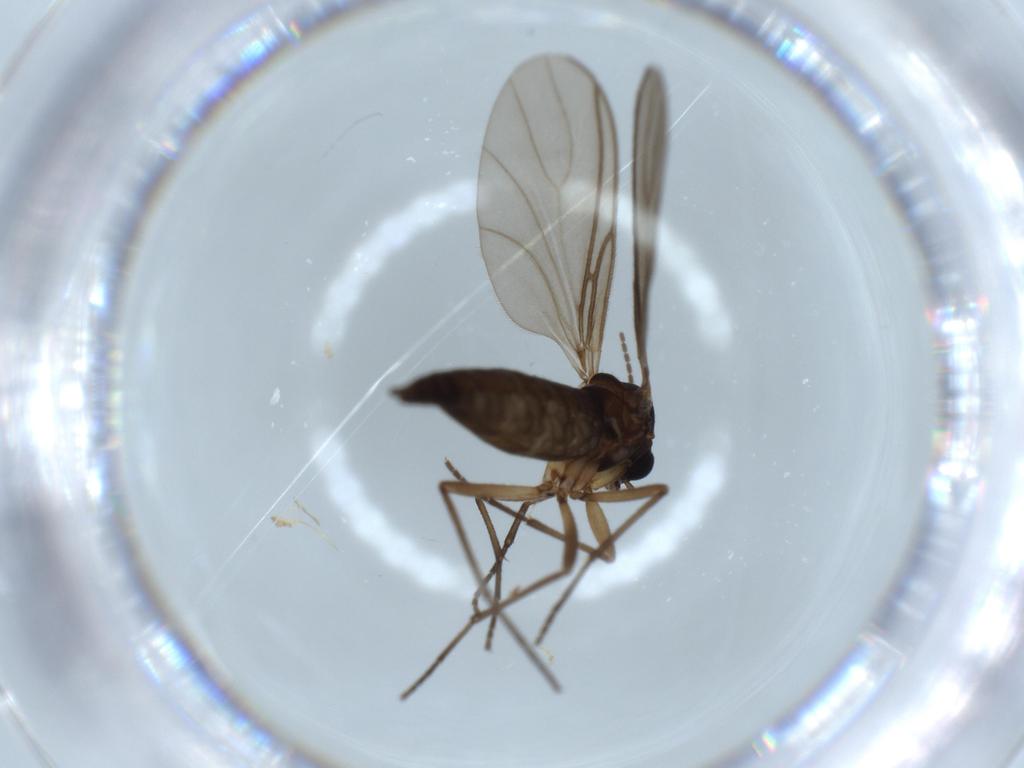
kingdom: Animalia
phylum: Arthropoda
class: Insecta
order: Diptera
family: Sciaridae
